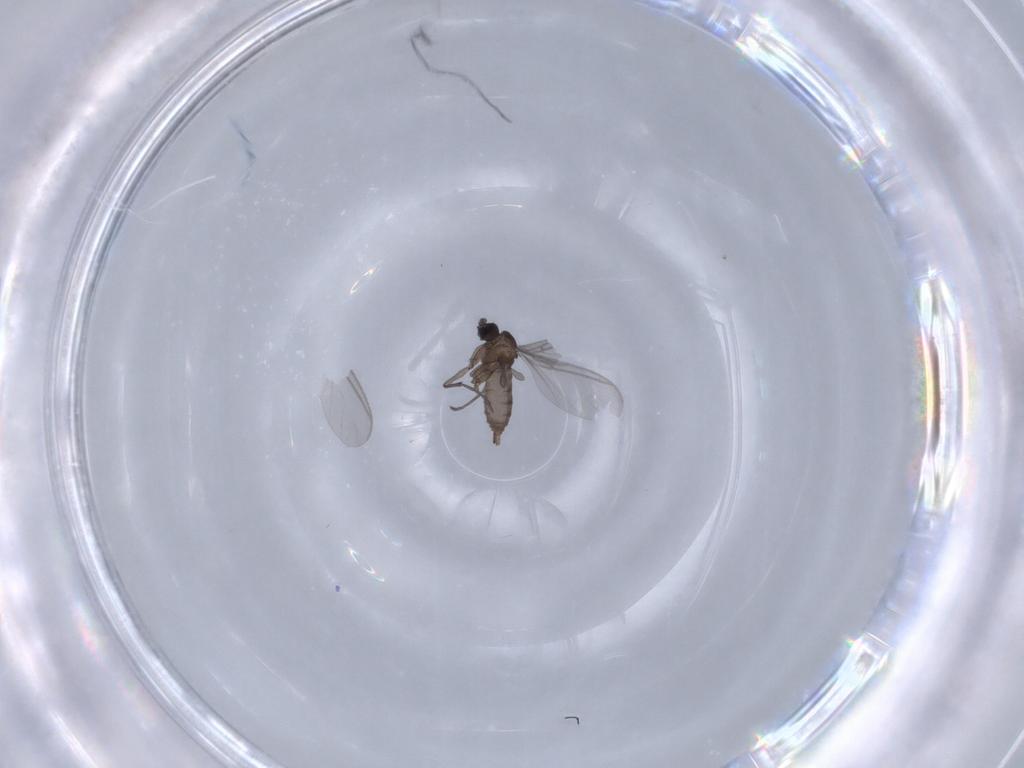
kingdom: Animalia
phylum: Arthropoda
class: Insecta
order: Diptera
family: Sciaridae
